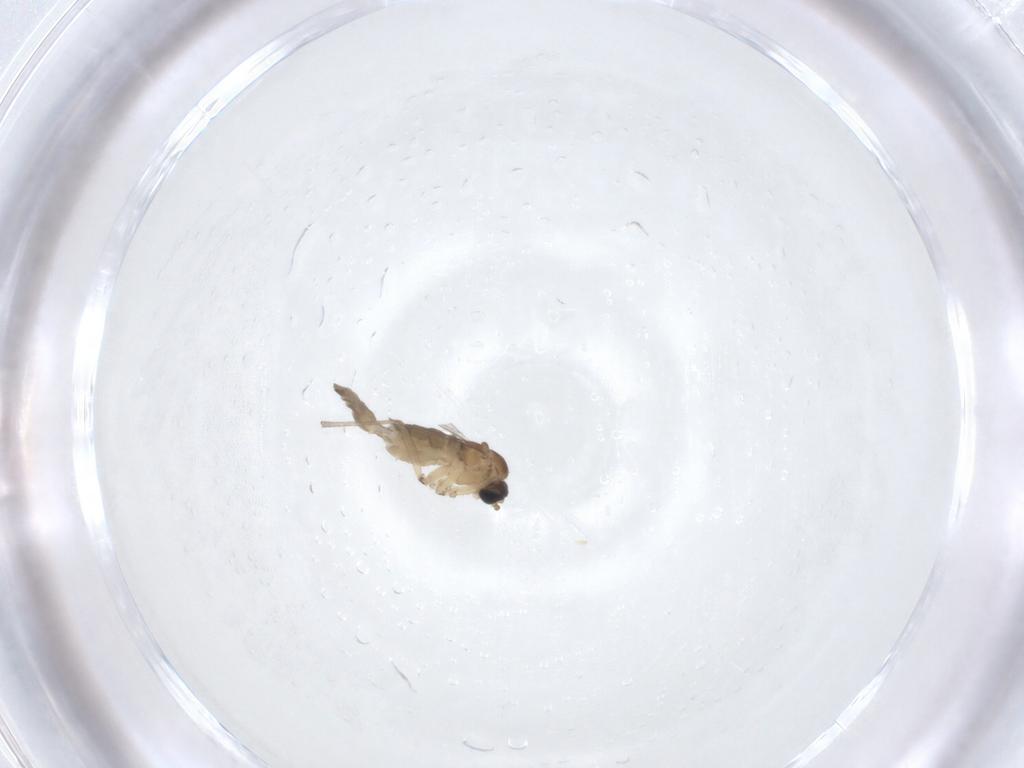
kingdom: Animalia
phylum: Arthropoda
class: Insecta
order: Diptera
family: Sciaridae
